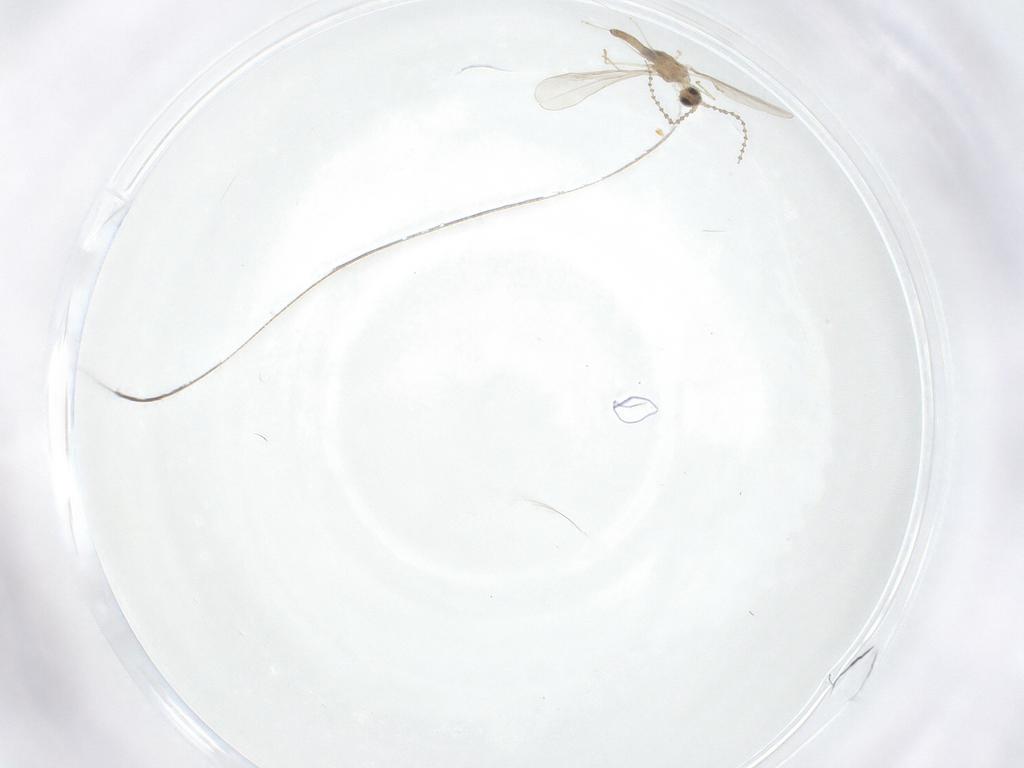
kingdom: Animalia
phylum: Arthropoda
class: Insecta
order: Diptera
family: Cecidomyiidae
